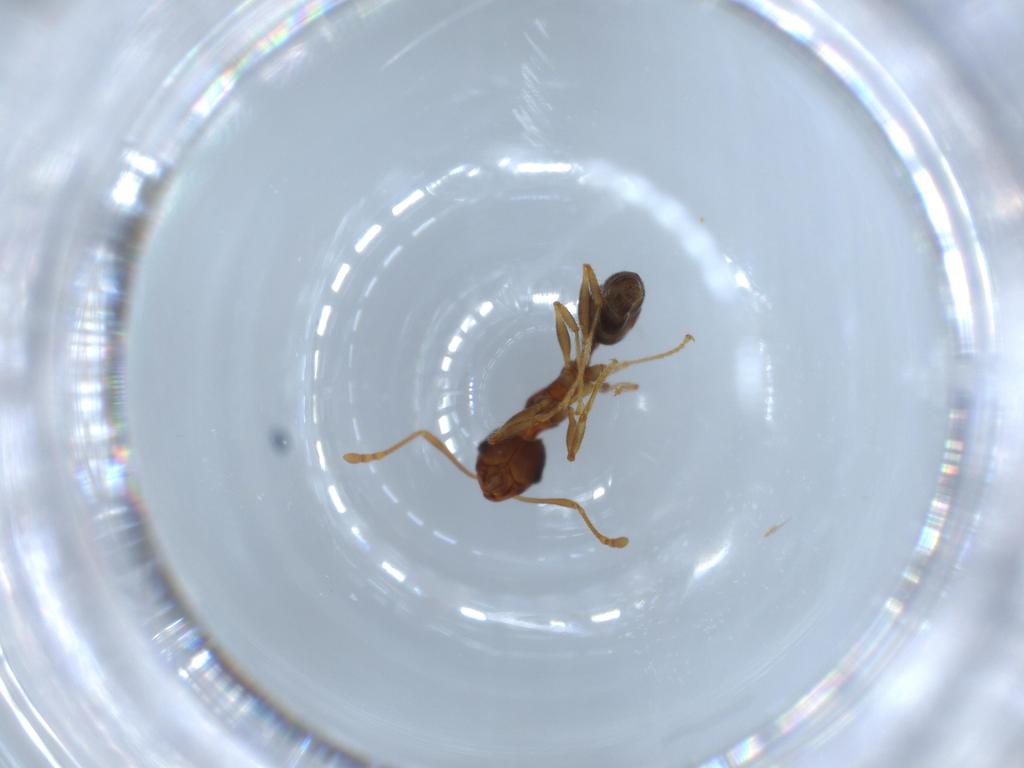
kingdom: Animalia
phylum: Arthropoda
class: Insecta
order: Hymenoptera
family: Formicidae
